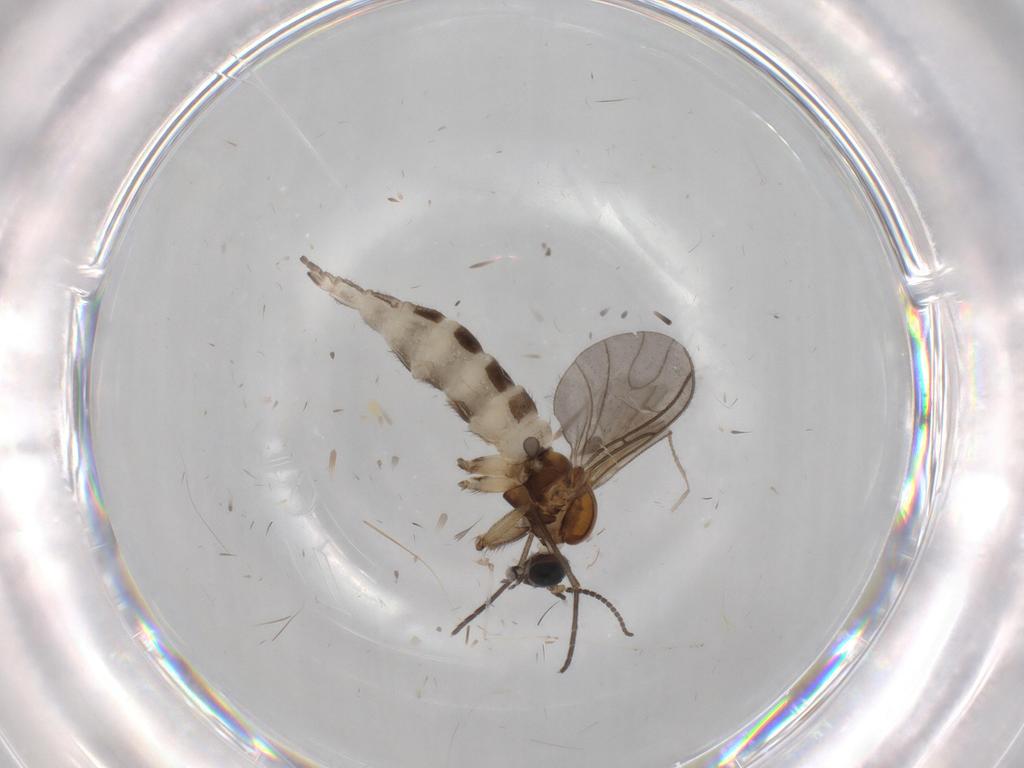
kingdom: Animalia
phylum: Arthropoda
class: Insecta
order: Diptera
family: Sciaridae
